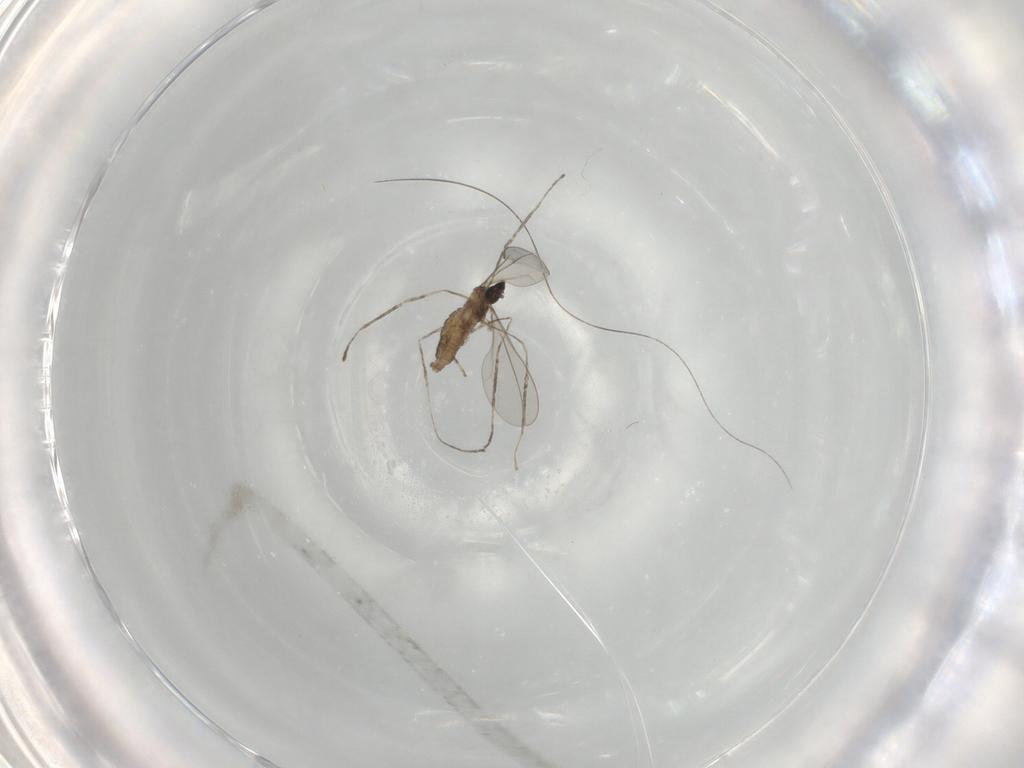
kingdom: Animalia
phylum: Arthropoda
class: Insecta
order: Diptera
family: Cecidomyiidae
